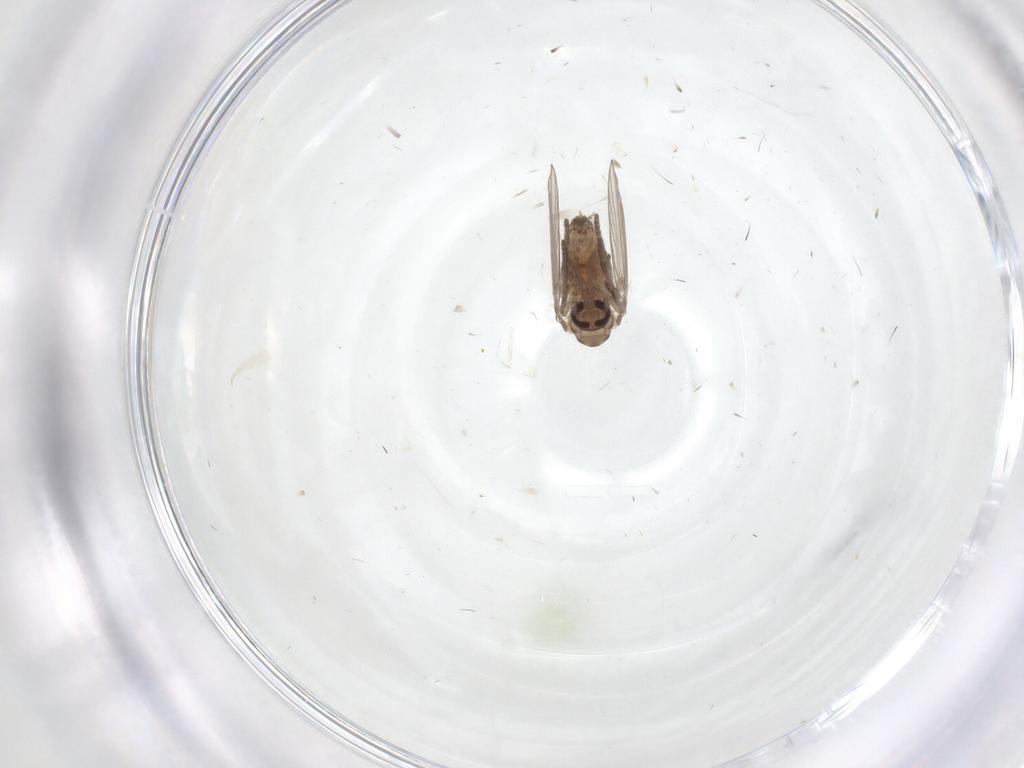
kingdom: Animalia
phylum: Arthropoda
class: Insecta
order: Diptera
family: Psychodidae
